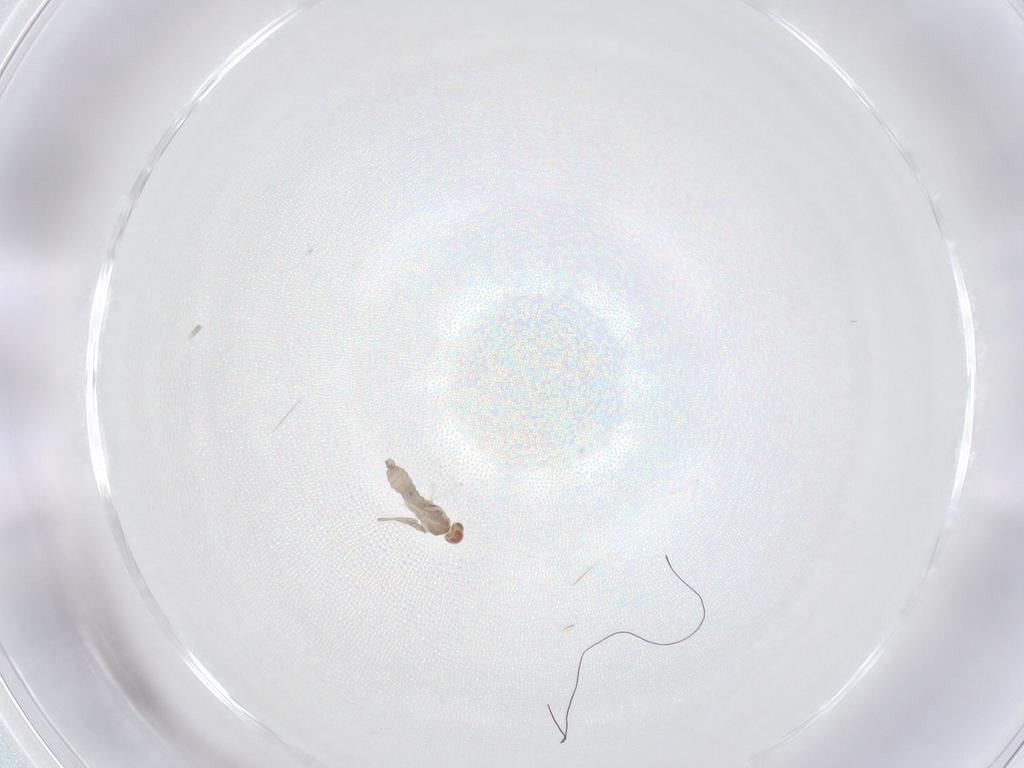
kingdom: Animalia
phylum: Arthropoda
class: Insecta
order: Diptera
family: Cecidomyiidae
